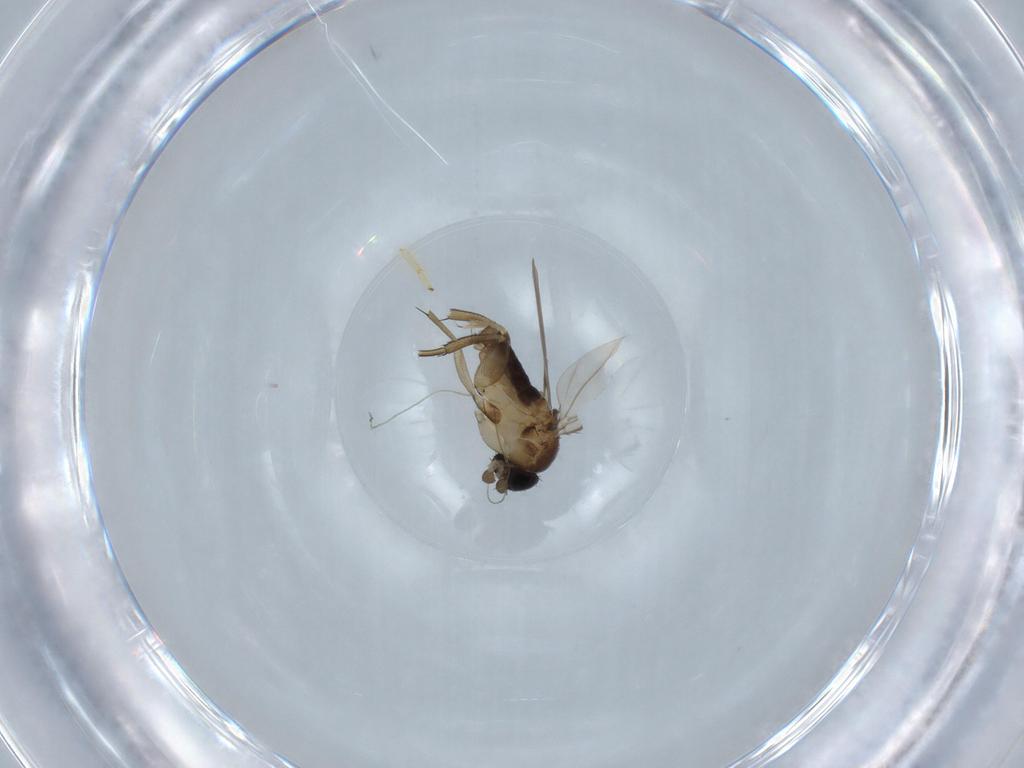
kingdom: Animalia
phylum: Arthropoda
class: Insecta
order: Diptera
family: Phoridae
